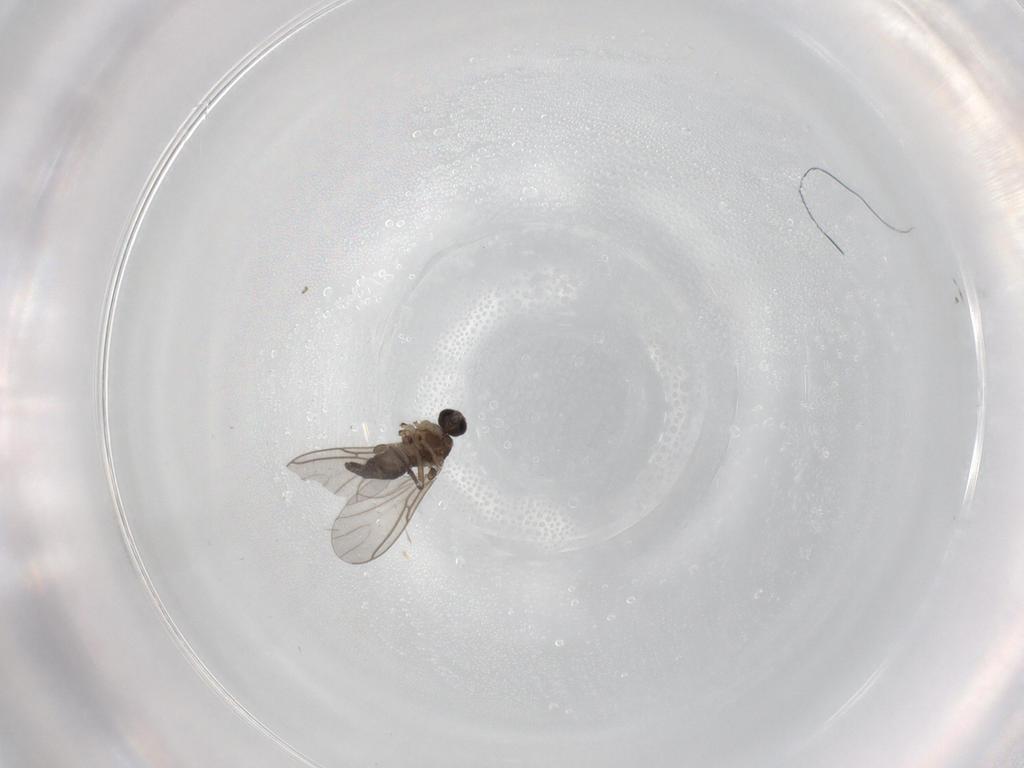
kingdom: Animalia
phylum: Arthropoda
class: Insecta
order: Diptera
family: Sciaridae
